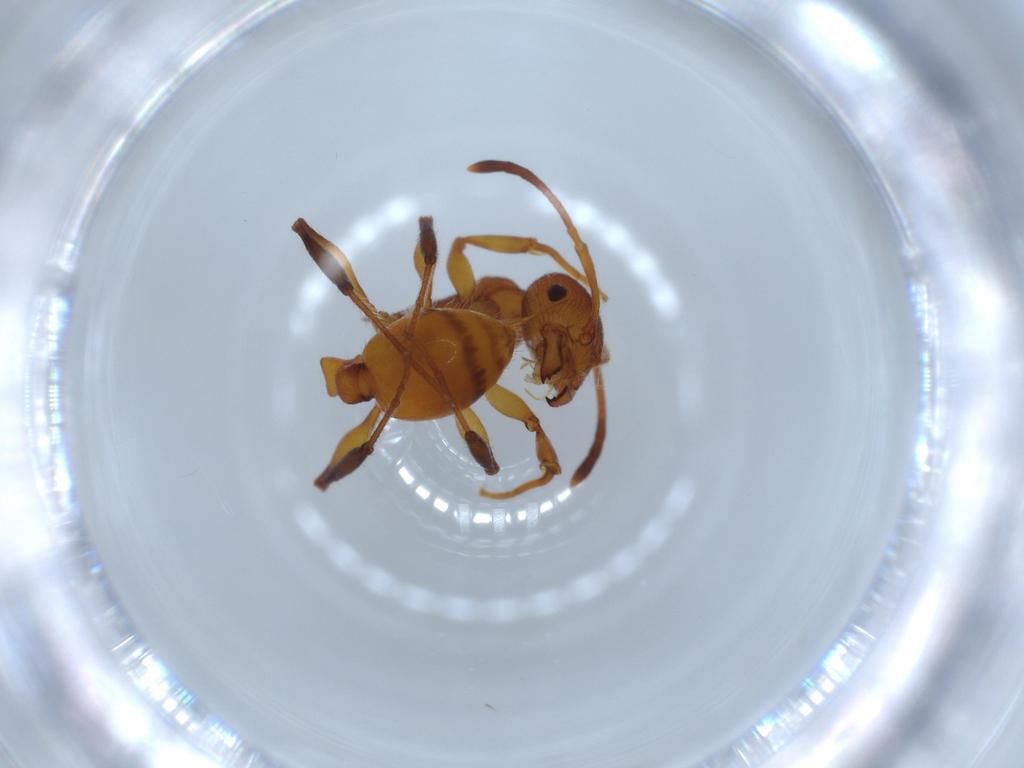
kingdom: Animalia
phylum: Arthropoda
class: Insecta
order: Hymenoptera
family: Formicidae
